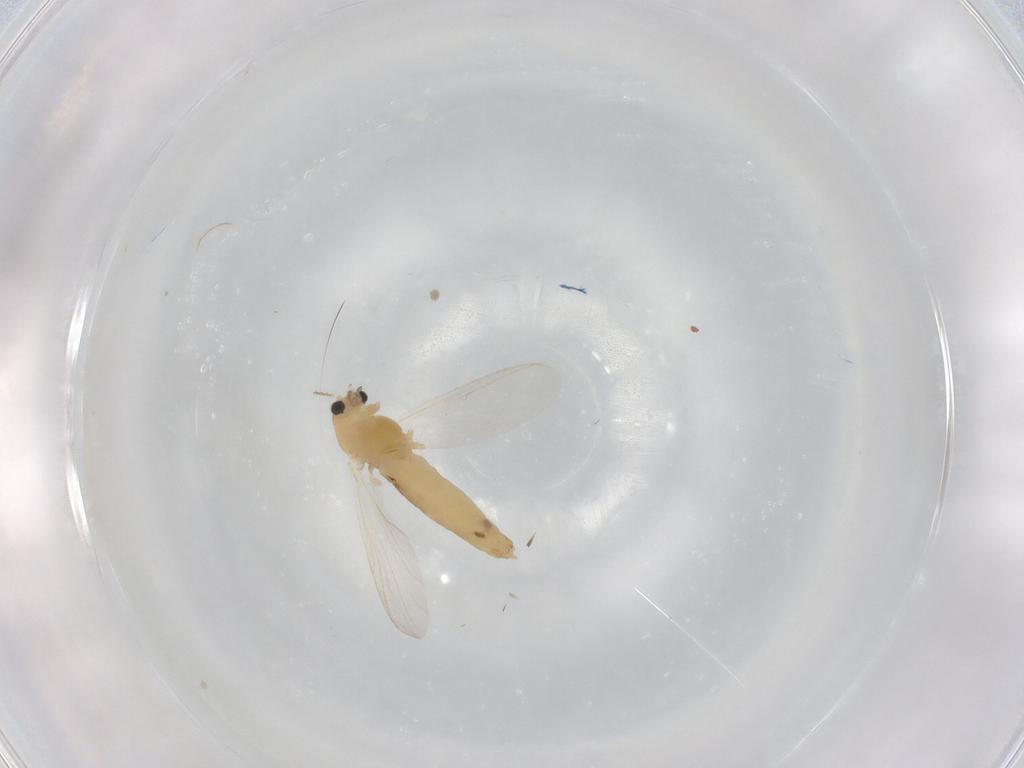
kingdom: Animalia
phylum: Arthropoda
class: Insecta
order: Diptera
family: Chironomidae
